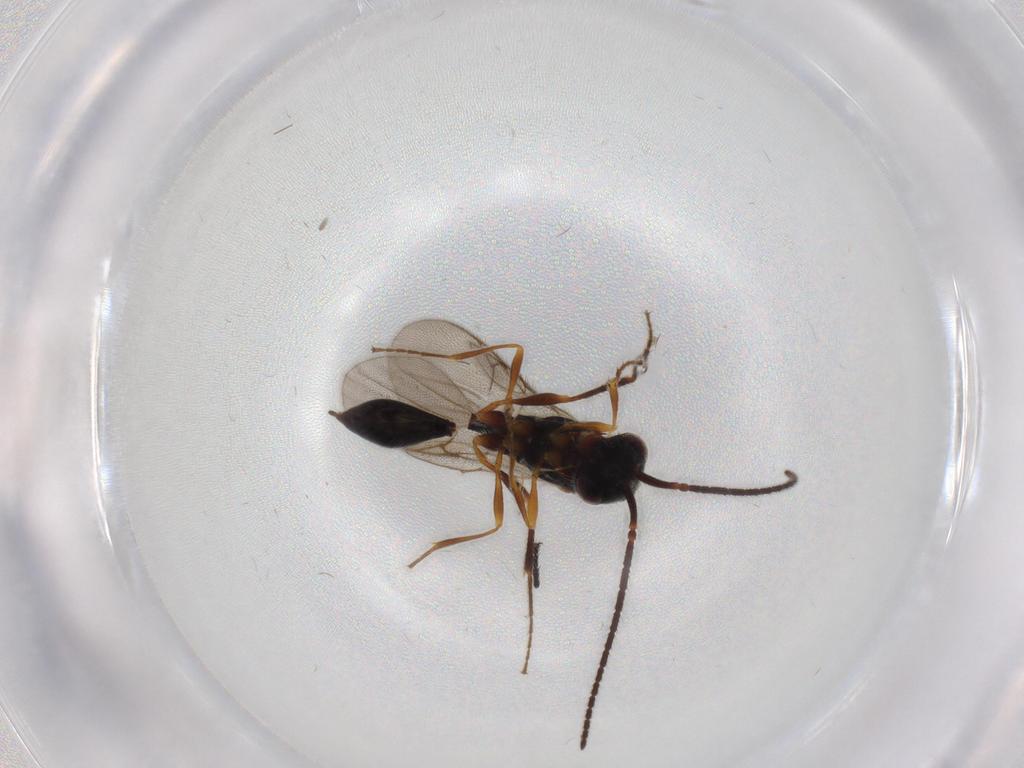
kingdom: Animalia
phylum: Arthropoda
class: Insecta
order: Hymenoptera
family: Diapriidae
